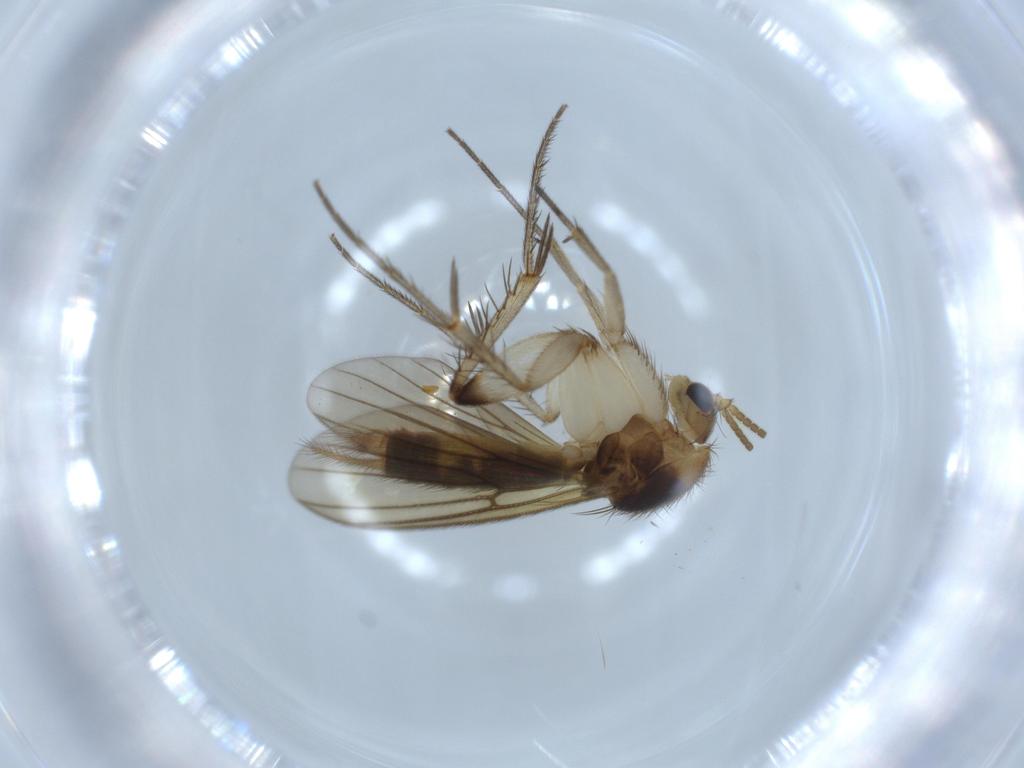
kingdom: Animalia
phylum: Arthropoda
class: Insecta
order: Diptera
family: Mycetophilidae
